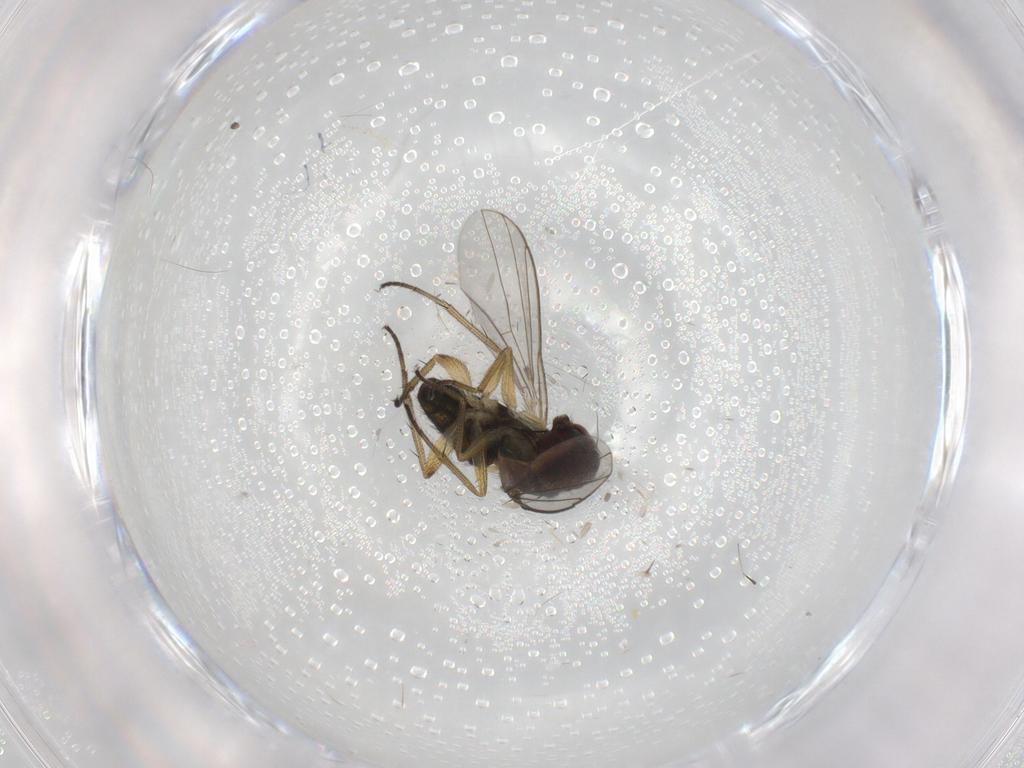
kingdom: Animalia
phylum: Arthropoda
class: Insecta
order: Diptera
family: Dolichopodidae
